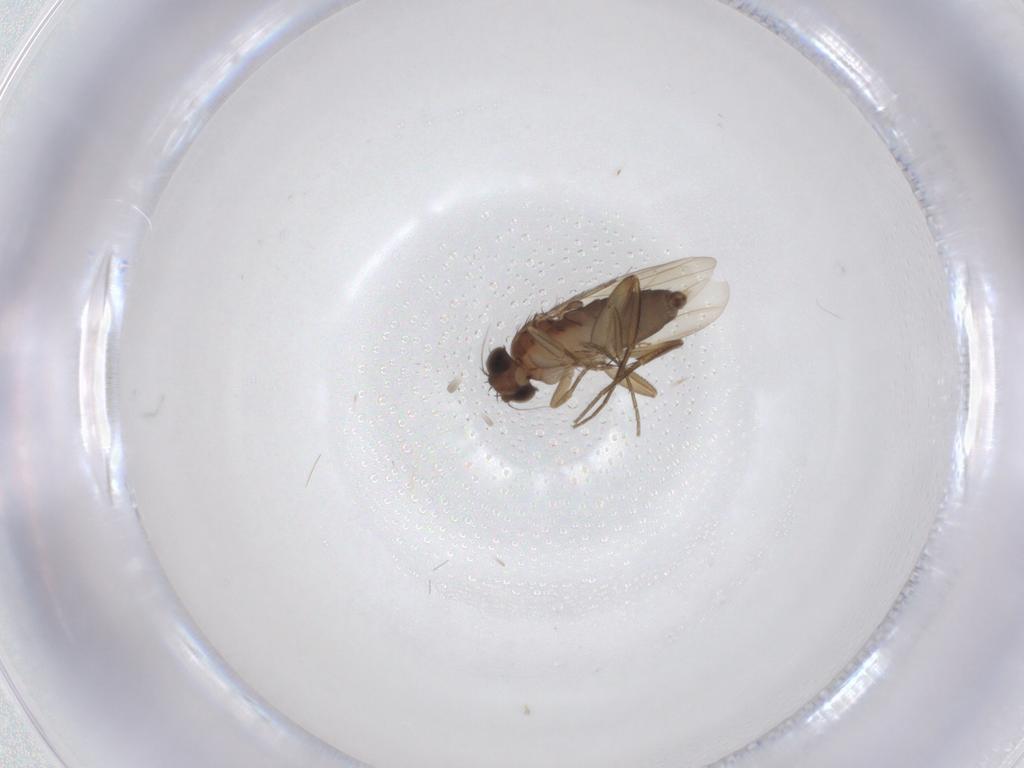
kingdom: Animalia
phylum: Arthropoda
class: Insecta
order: Diptera
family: Phoridae
